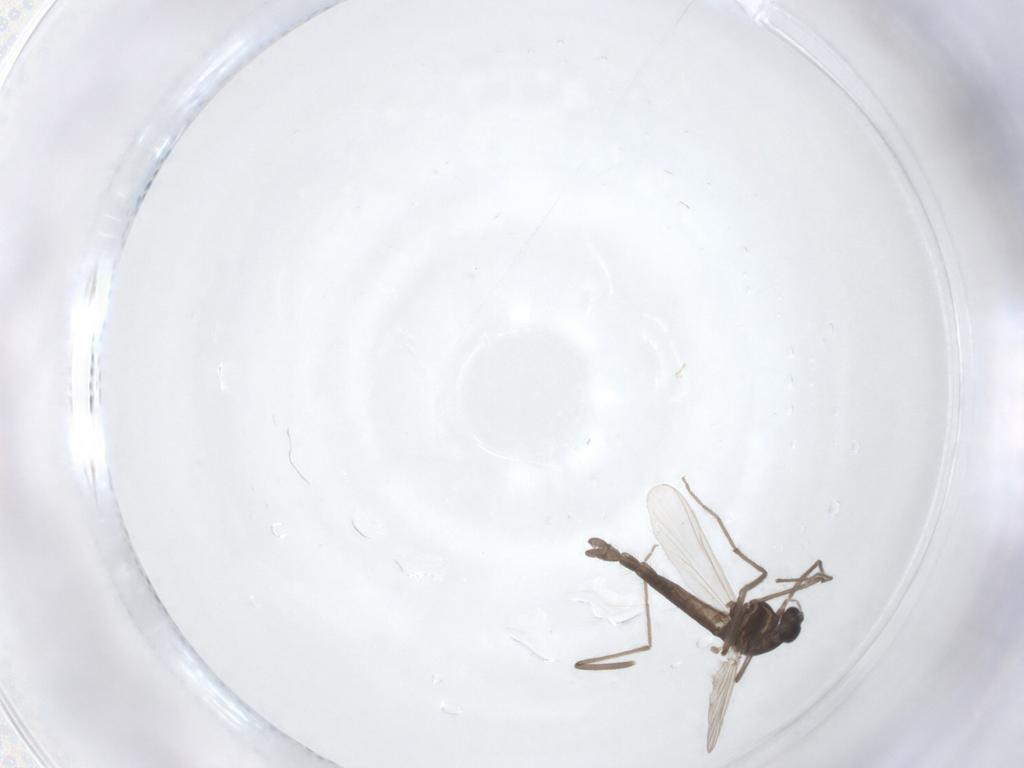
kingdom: Animalia
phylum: Arthropoda
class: Insecta
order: Diptera
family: Chironomidae
